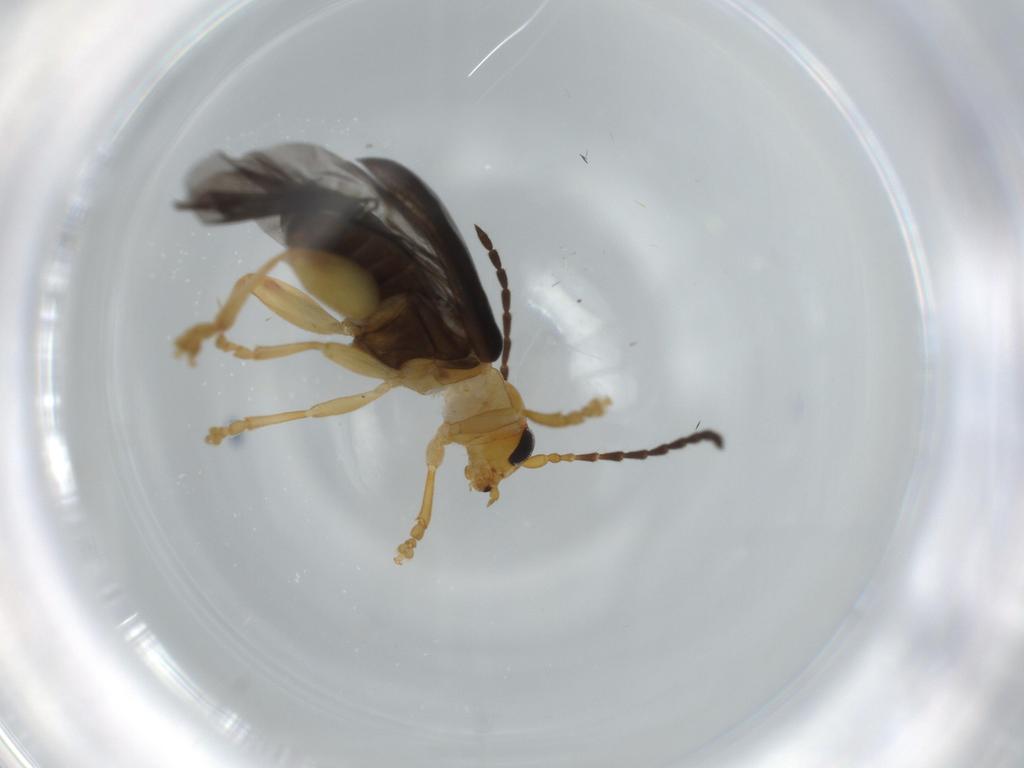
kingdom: Animalia
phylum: Arthropoda
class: Insecta
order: Coleoptera
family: Chrysomelidae
